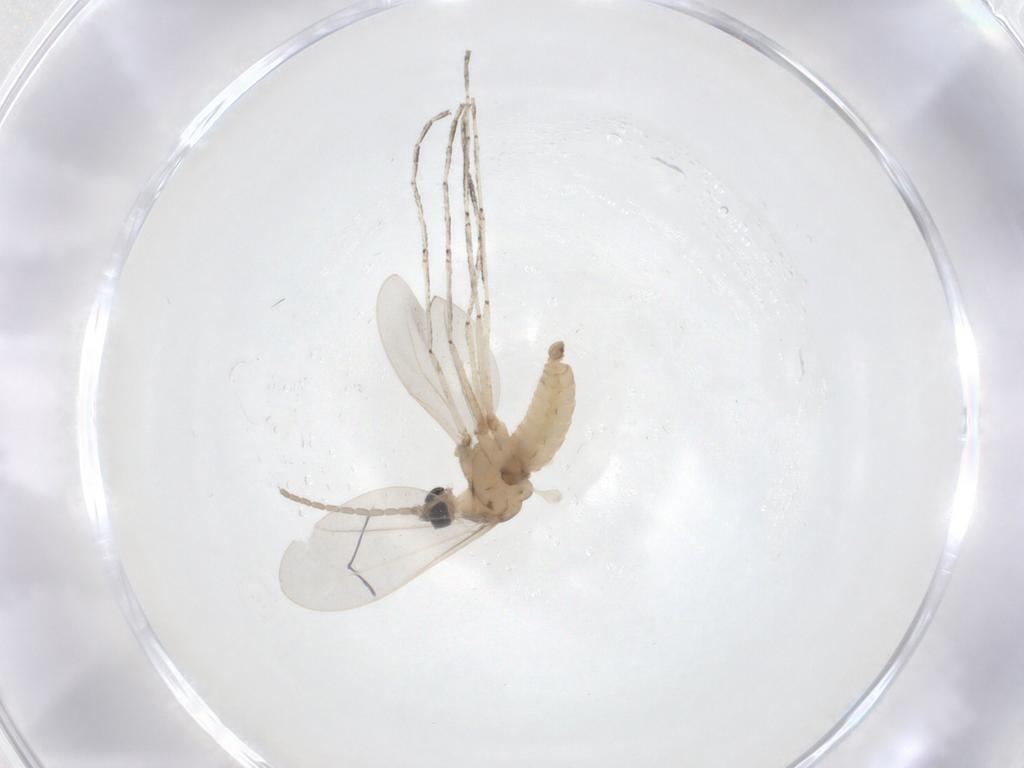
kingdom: Animalia
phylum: Arthropoda
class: Insecta
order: Diptera
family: Cecidomyiidae
